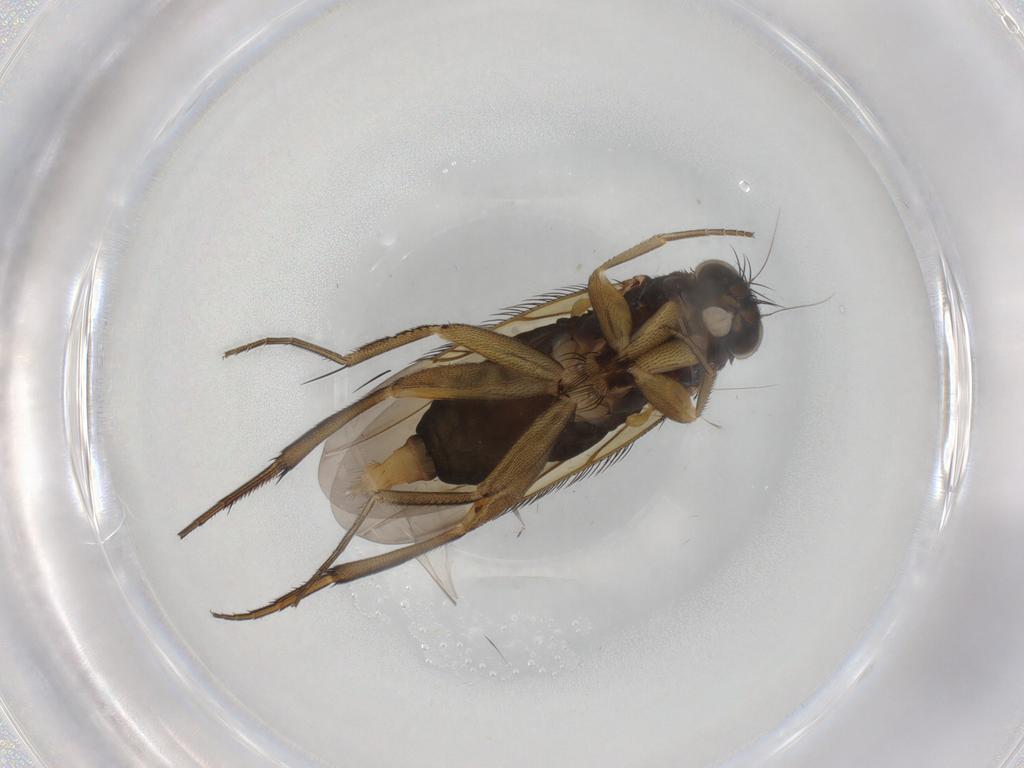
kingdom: Animalia
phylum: Arthropoda
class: Insecta
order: Diptera
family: Phoridae
